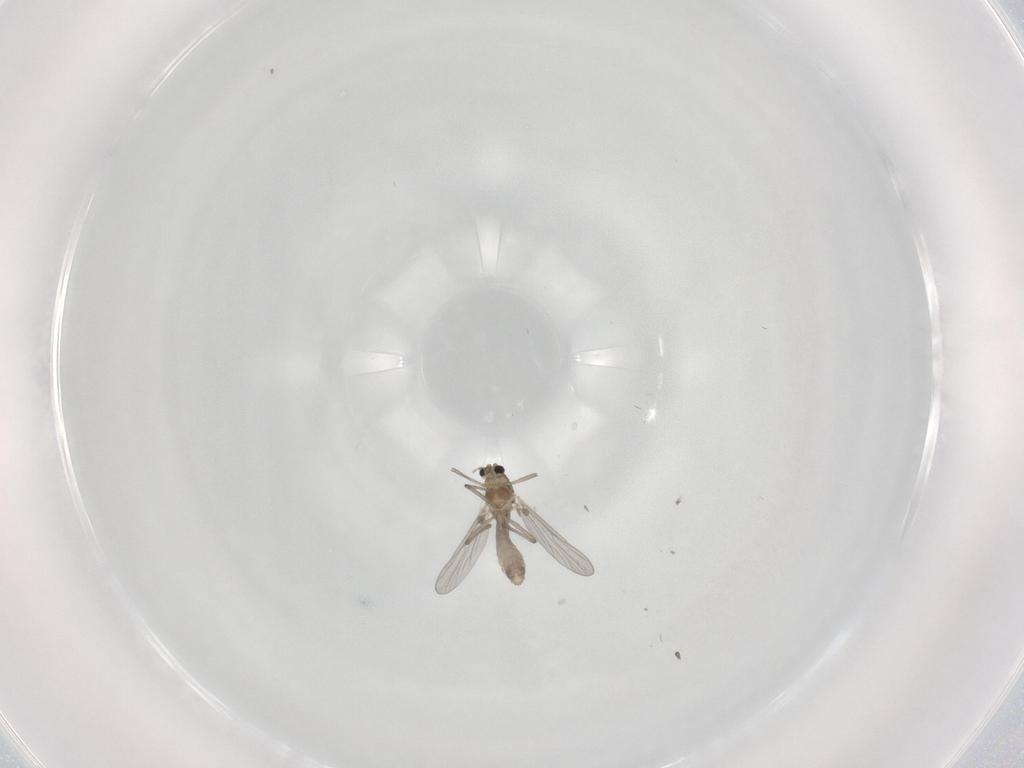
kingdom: Animalia
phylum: Arthropoda
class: Insecta
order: Diptera
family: Chironomidae
